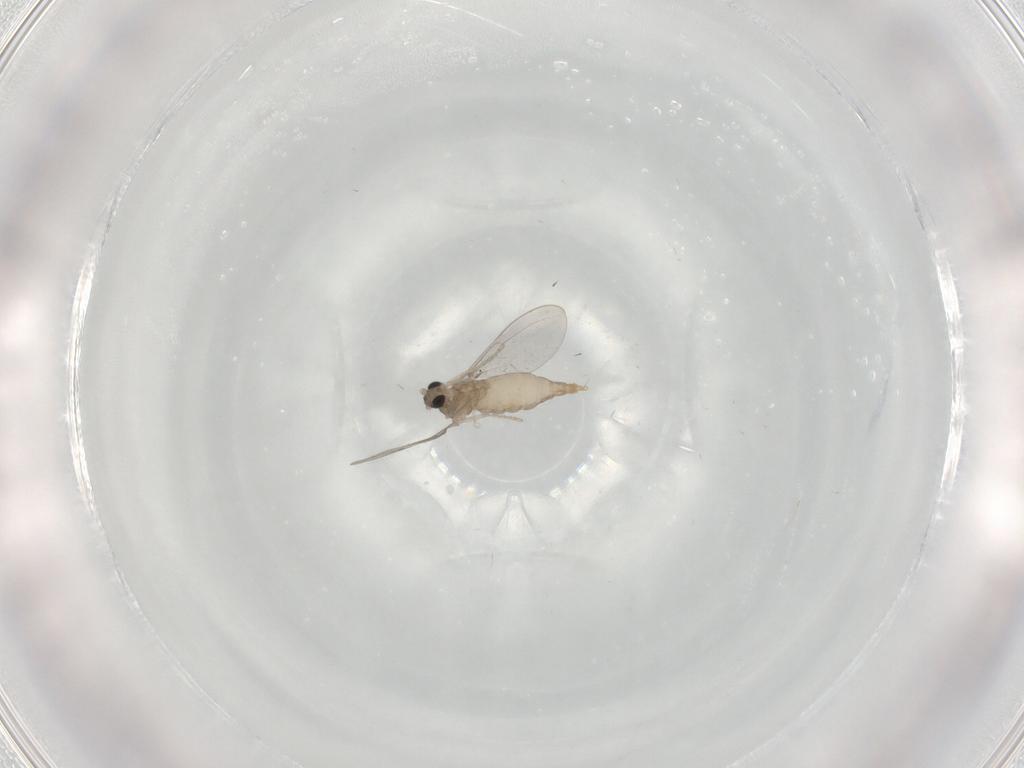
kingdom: Animalia
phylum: Arthropoda
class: Insecta
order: Diptera
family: Cecidomyiidae
